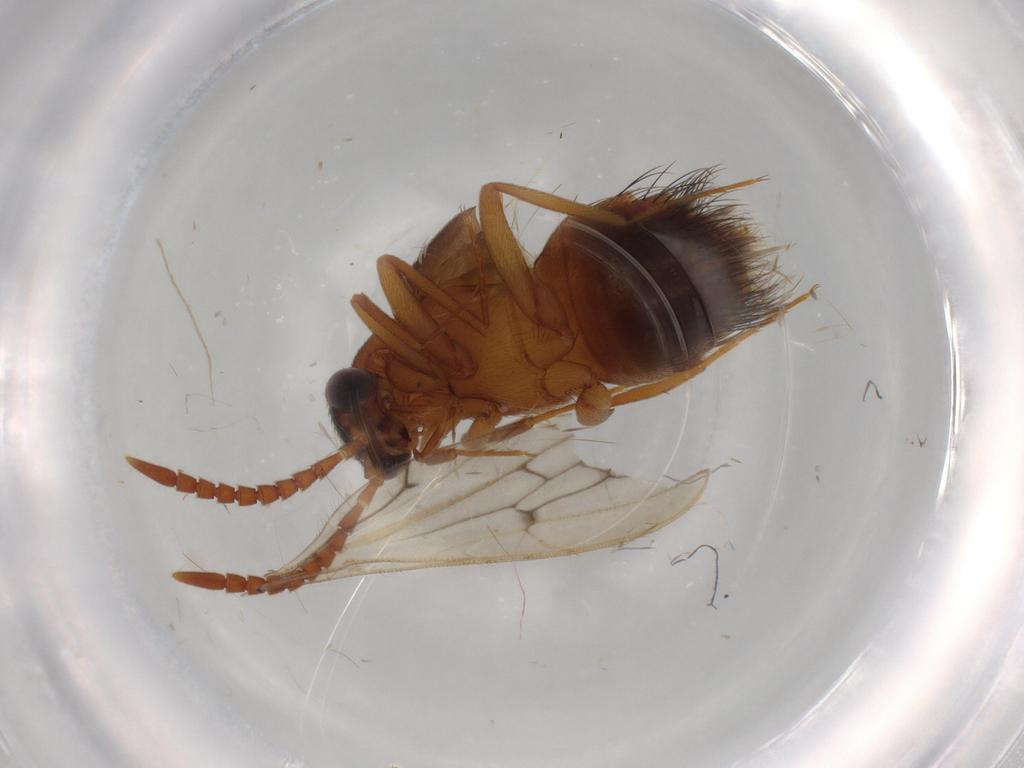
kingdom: Animalia
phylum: Arthropoda
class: Insecta
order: Coleoptera
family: Staphylinidae
